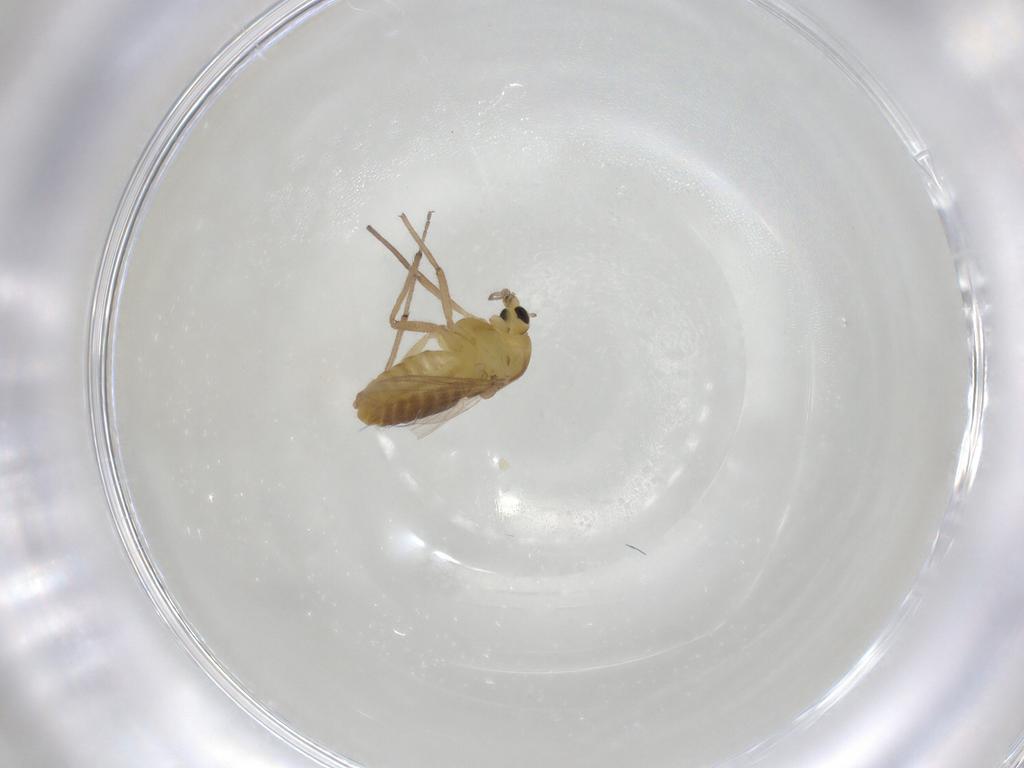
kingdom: Animalia
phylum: Arthropoda
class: Insecta
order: Diptera
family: Chironomidae
